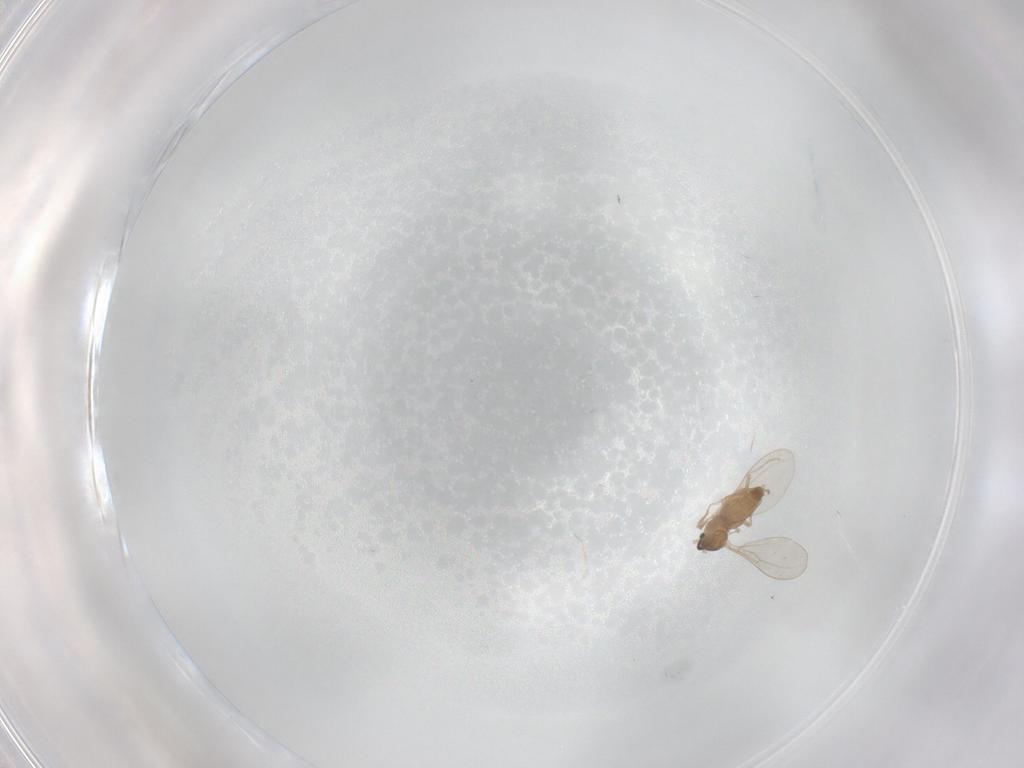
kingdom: Animalia
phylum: Arthropoda
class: Insecta
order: Diptera
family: Cecidomyiidae
